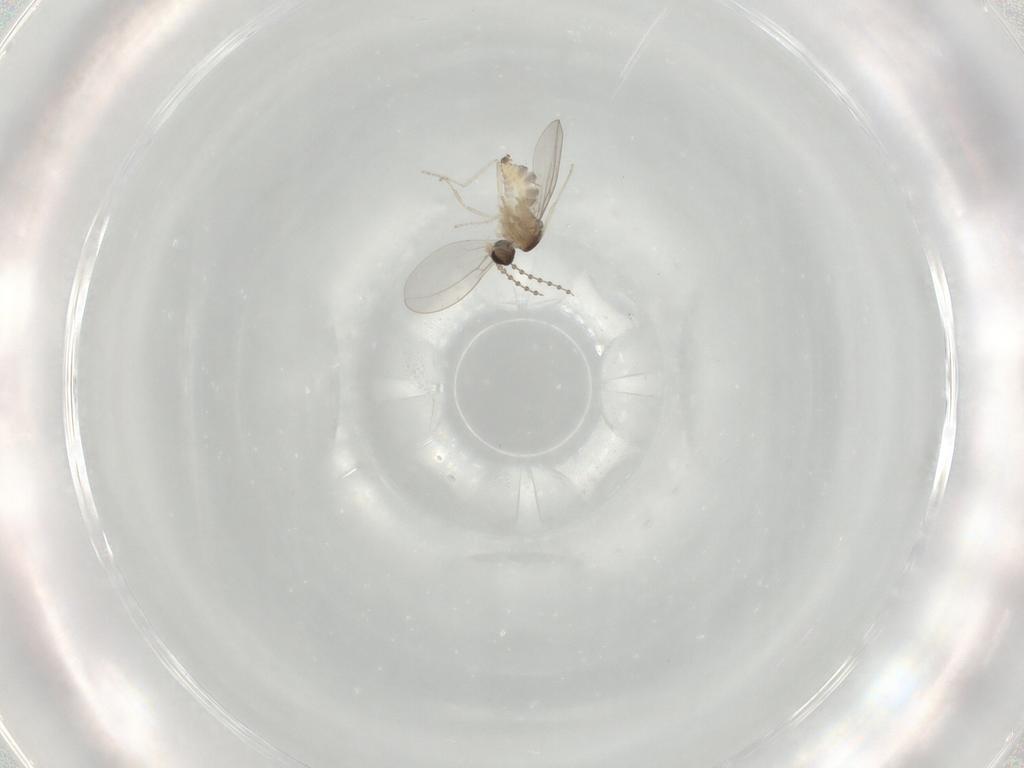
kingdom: Animalia
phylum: Arthropoda
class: Insecta
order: Diptera
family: Cecidomyiidae
